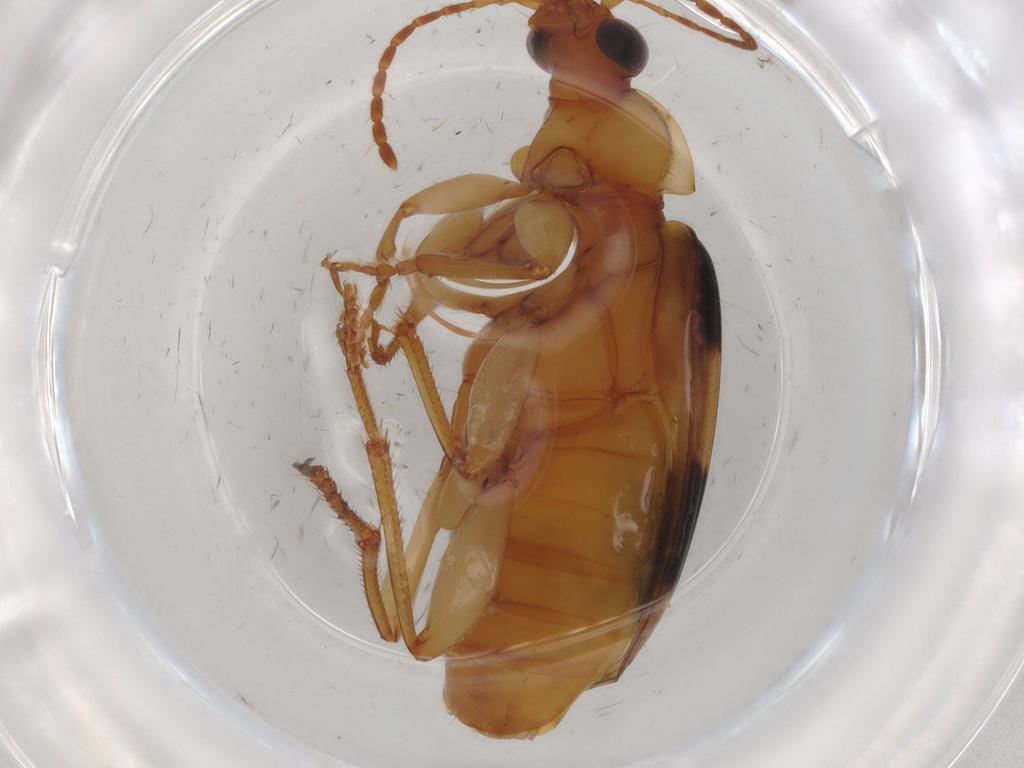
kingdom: Animalia
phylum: Arthropoda
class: Insecta
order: Coleoptera
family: Carabidae
